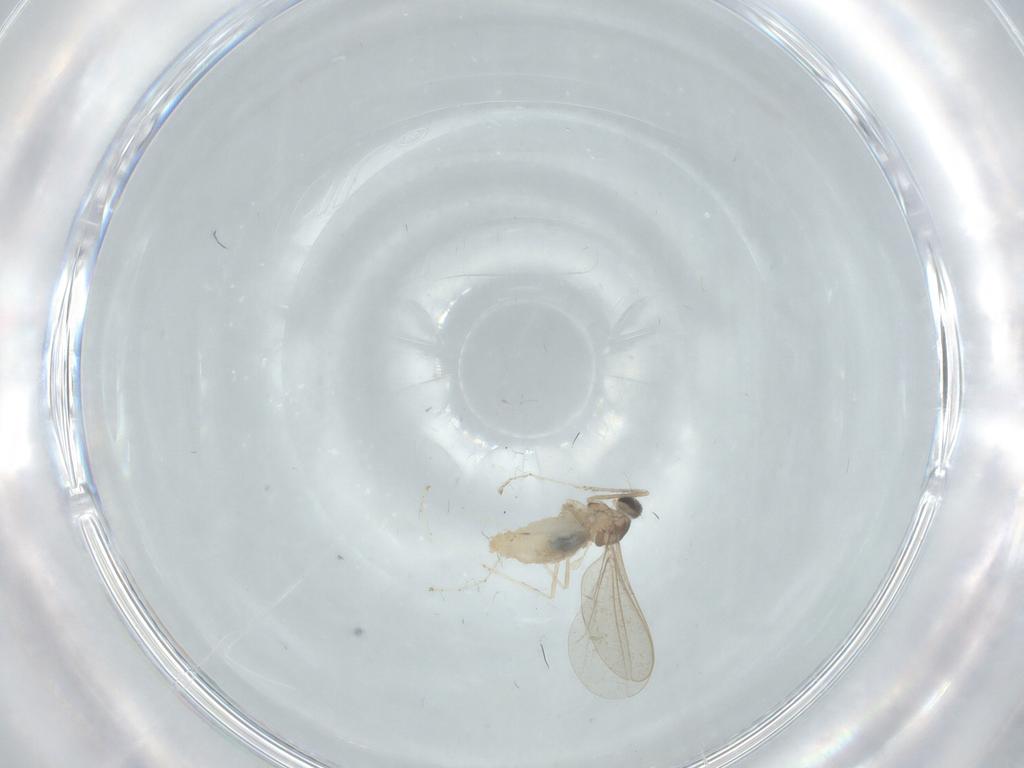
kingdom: Animalia
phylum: Arthropoda
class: Insecta
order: Diptera
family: Cecidomyiidae
